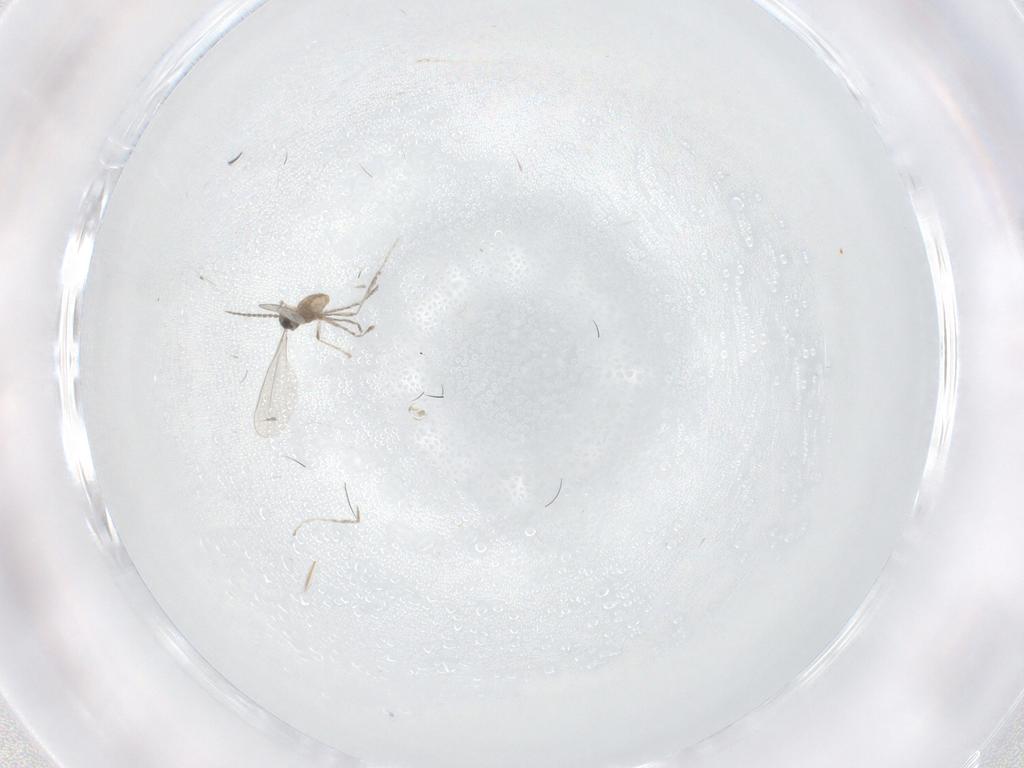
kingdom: Animalia
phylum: Arthropoda
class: Insecta
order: Diptera
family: Cecidomyiidae
